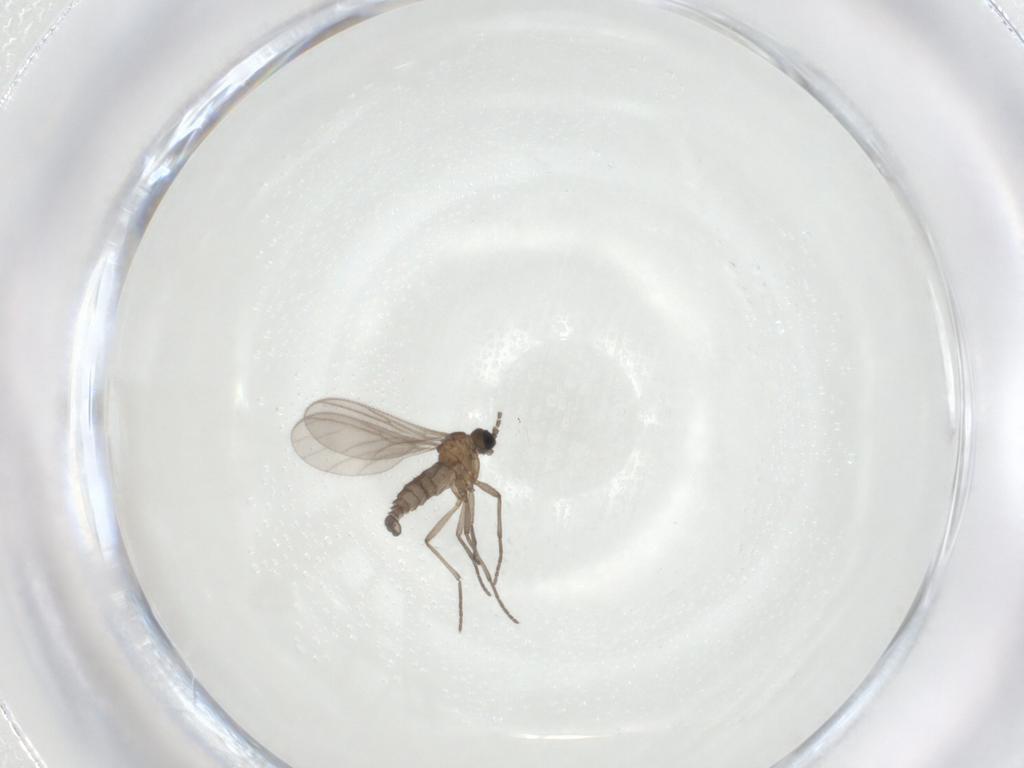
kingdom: Animalia
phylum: Arthropoda
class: Insecta
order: Diptera
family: Sciaridae
